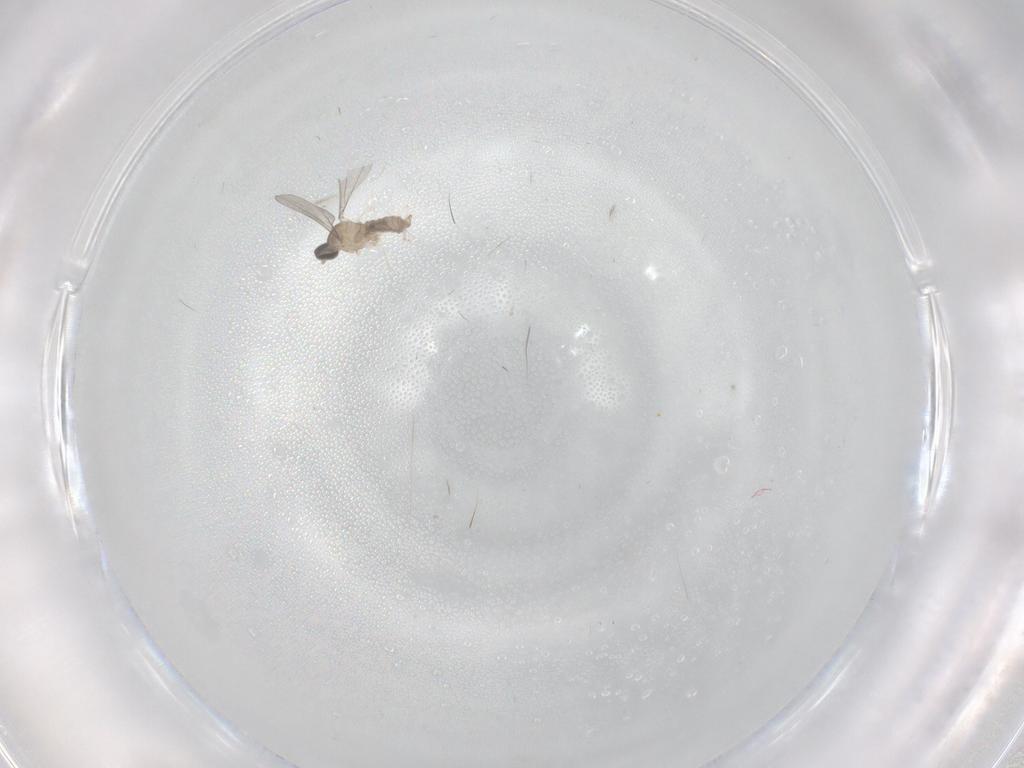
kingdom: Animalia
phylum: Arthropoda
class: Insecta
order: Diptera
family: Cecidomyiidae
